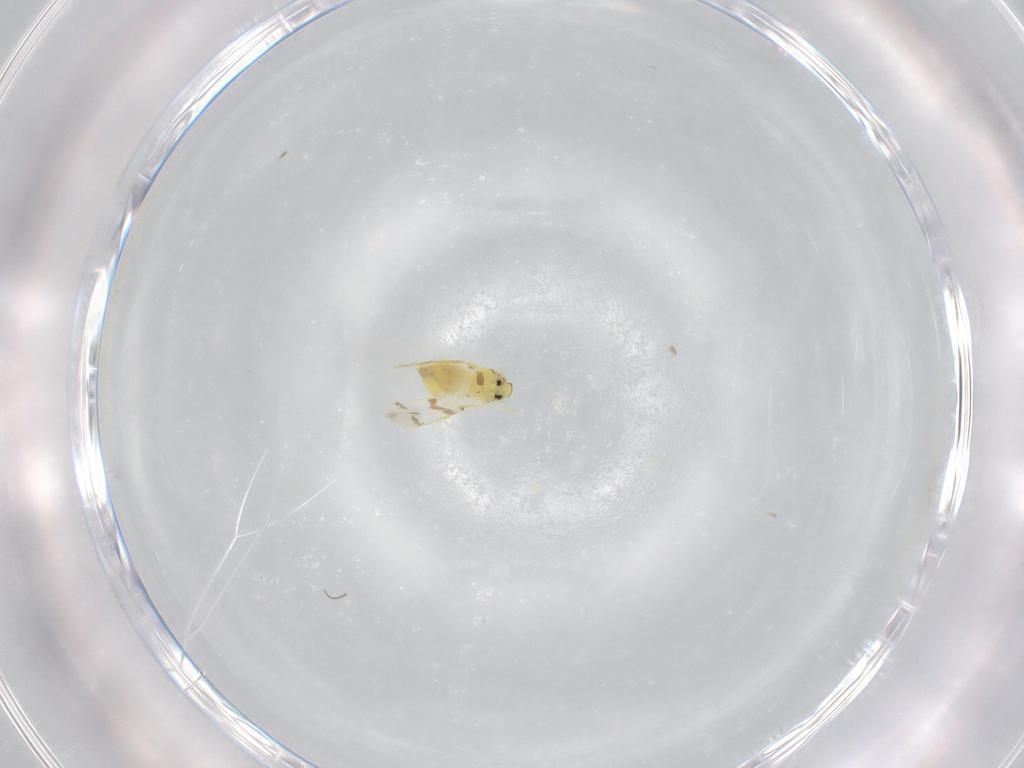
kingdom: Animalia
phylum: Arthropoda
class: Insecta
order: Hemiptera
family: Aleyrodidae
